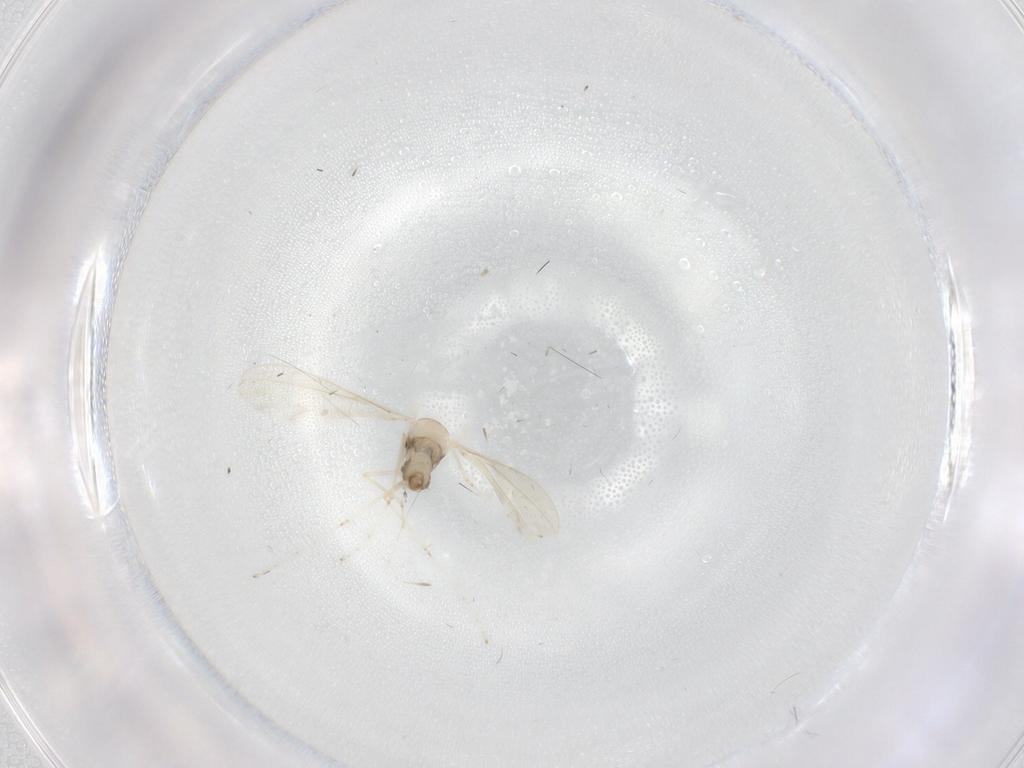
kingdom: Animalia
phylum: Arthropoda
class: Insecta
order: Diptera
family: Cecidomyiidae
